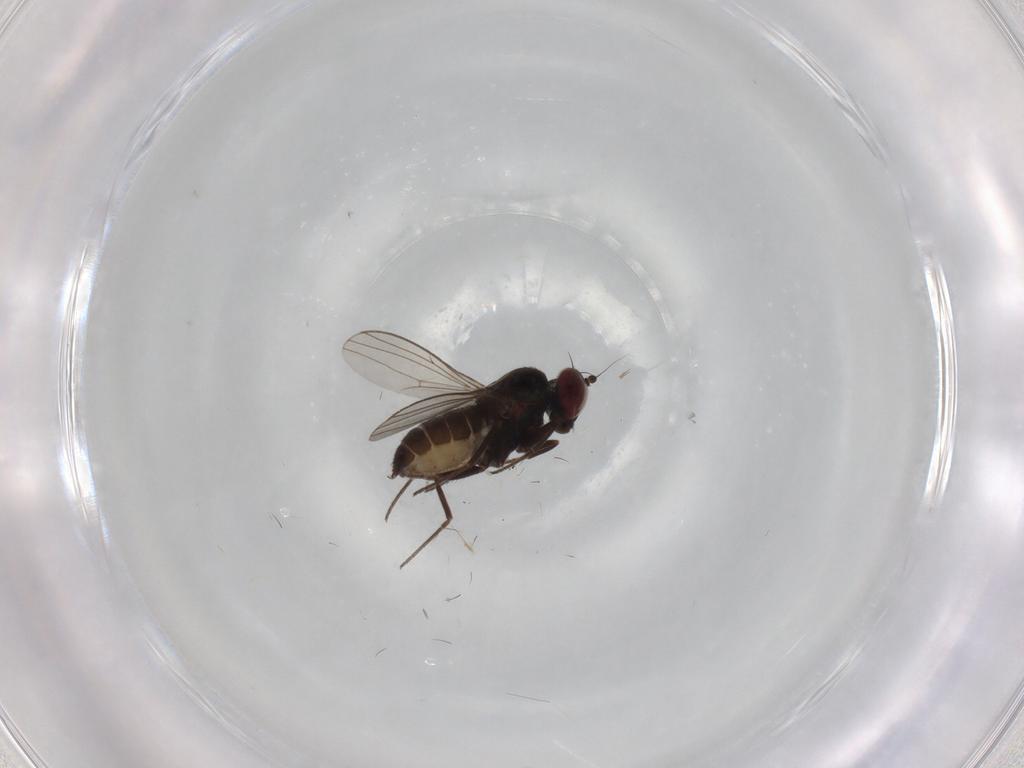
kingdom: Animalia
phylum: Arthropoda
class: Insecta
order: Diptera
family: Dolichopodidae
